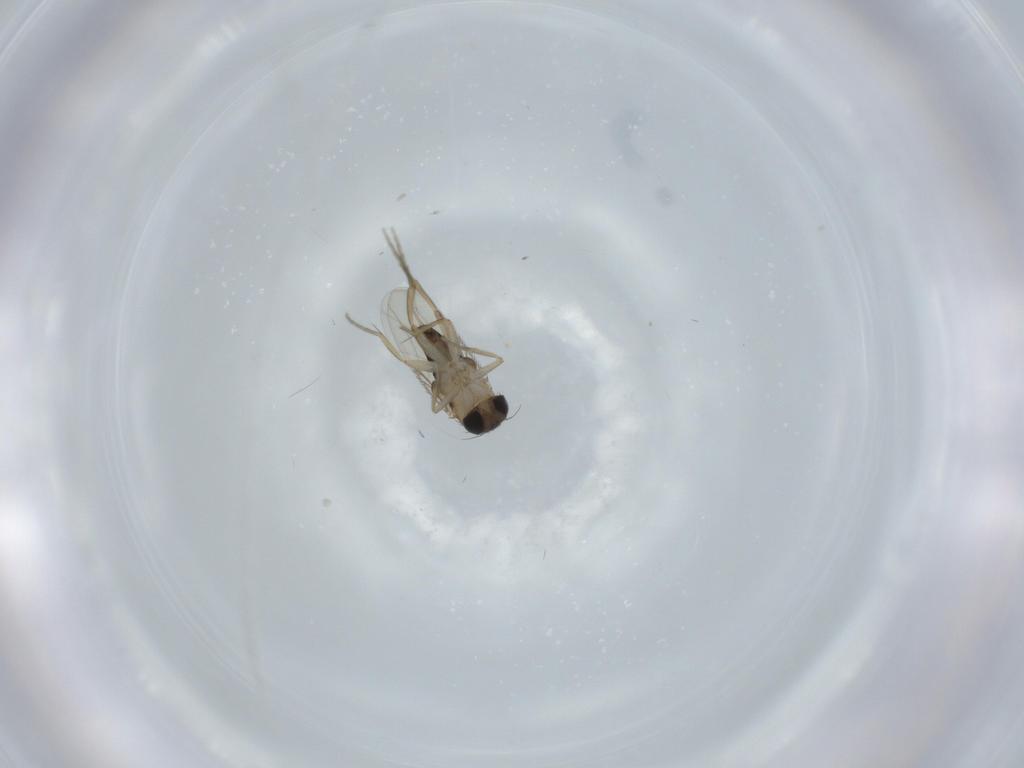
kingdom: Animalia
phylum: Arthropoda
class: Insecta
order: Diptera
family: Phoridae
